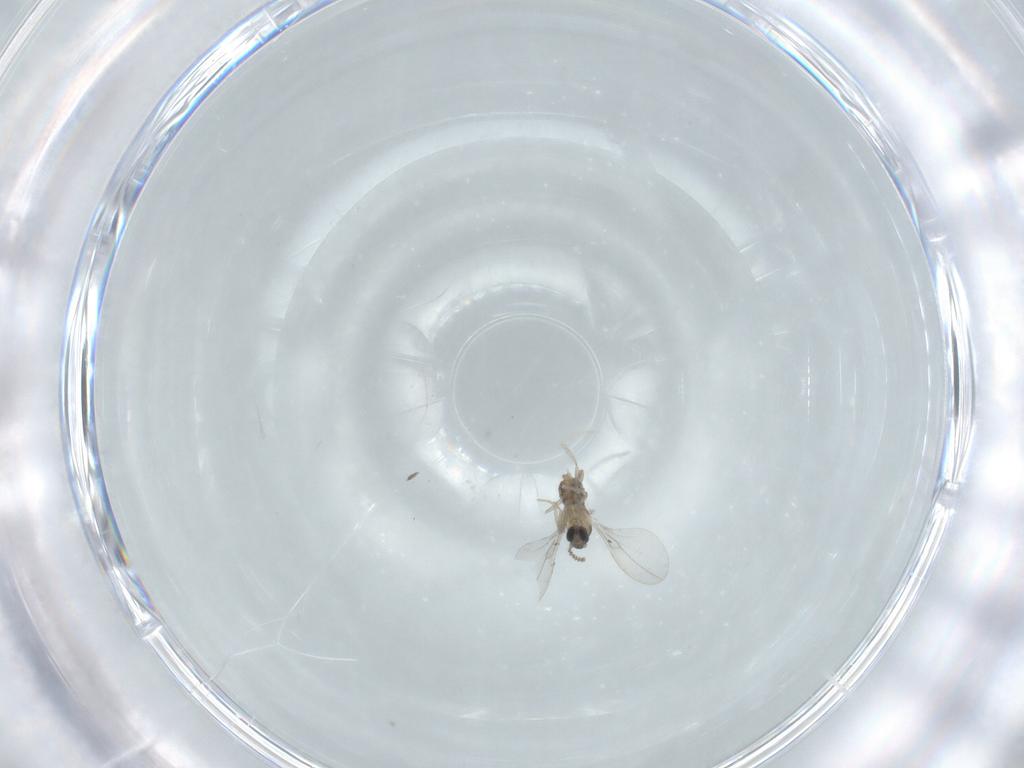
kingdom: Animalia
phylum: Arthropoda
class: Insecta
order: Diptera
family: Cecidomyiidae
